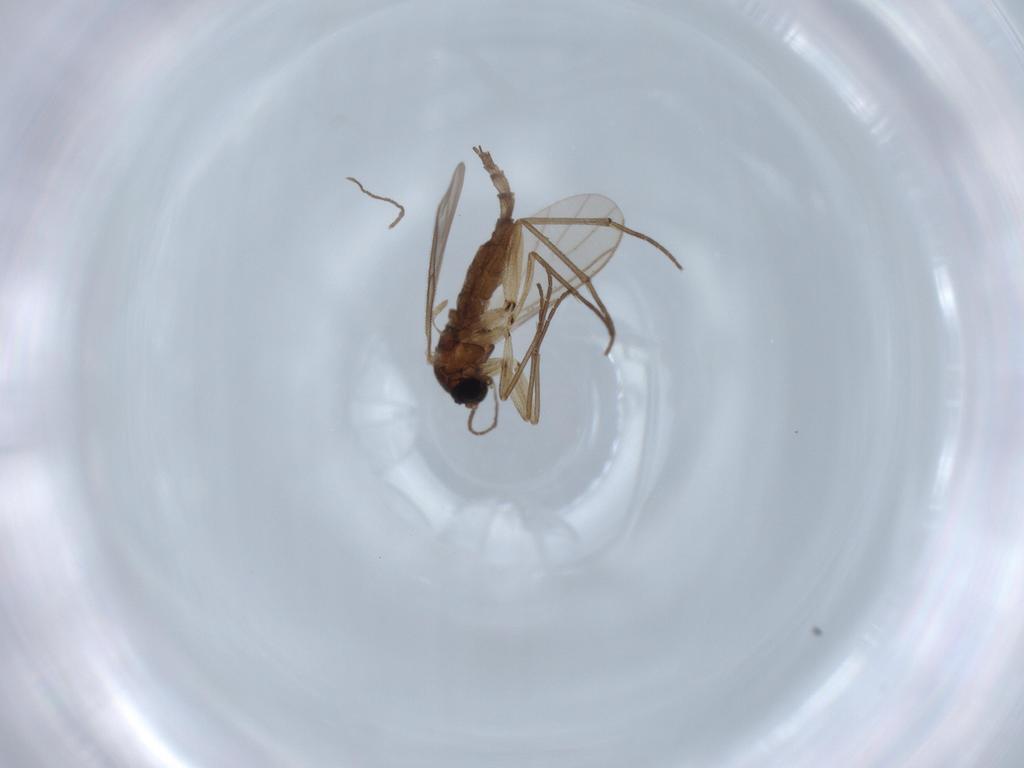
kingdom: Animalia
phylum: Arthropoda
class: Insecta
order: Diptera
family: Sciaridae
